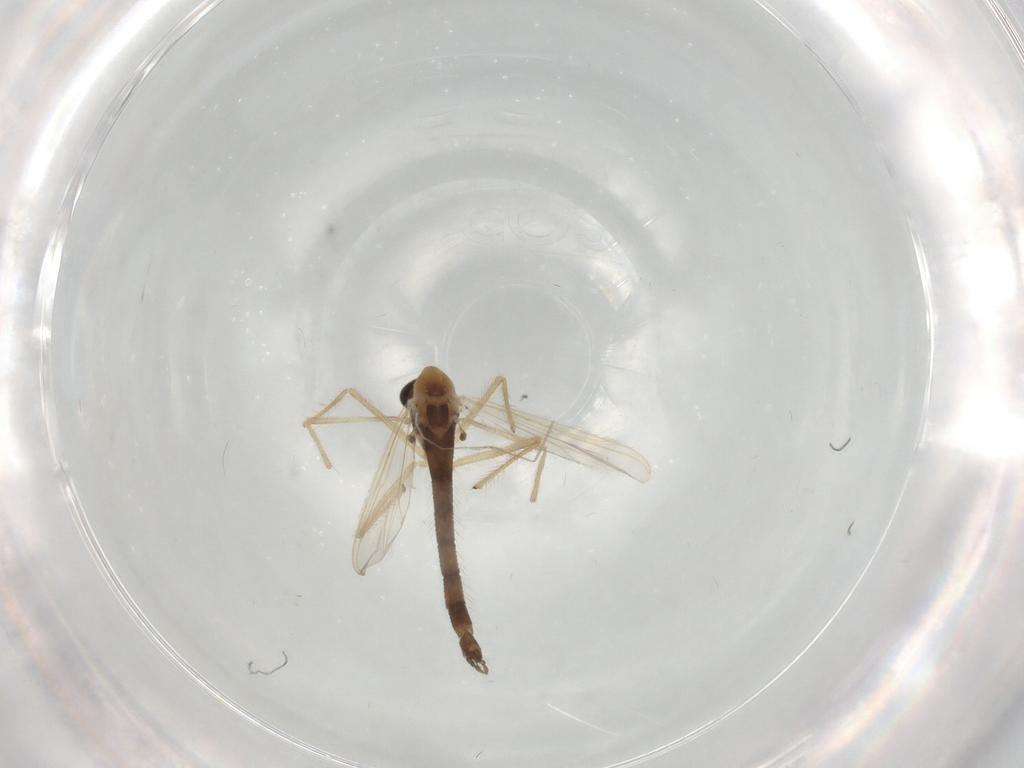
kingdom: Animalia
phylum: Arthropoda
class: Insecta
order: Diptera
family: Chironomidae
